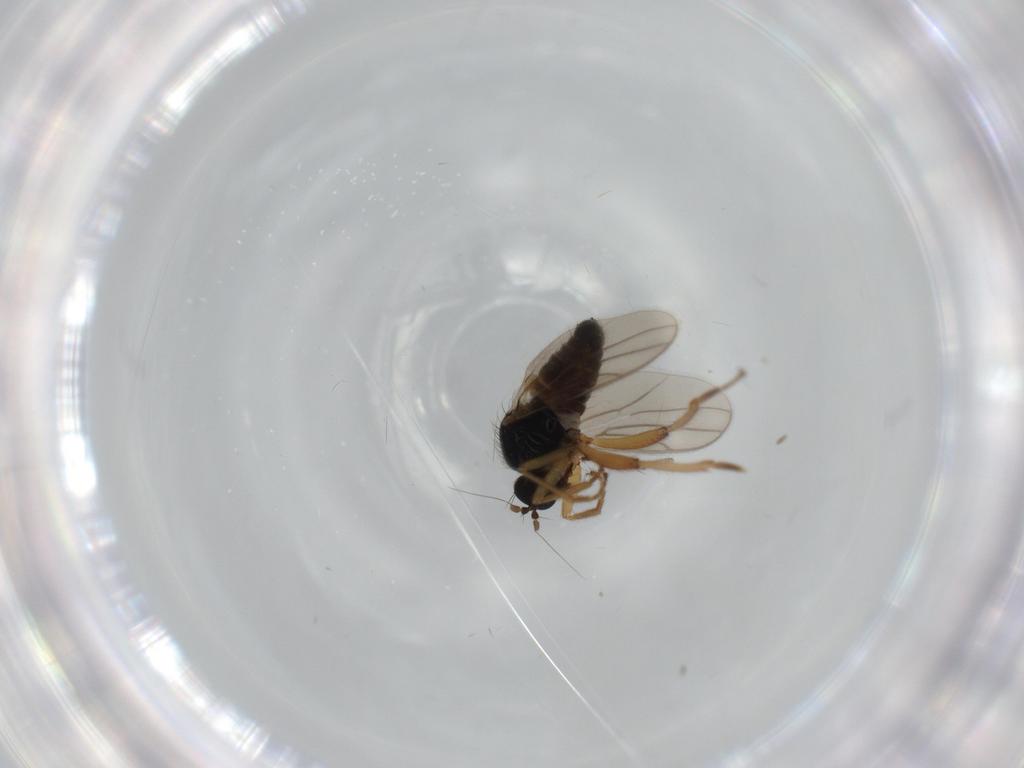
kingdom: Animalia
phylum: Arthropoda
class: Insecta
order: Diptera
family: Hybotidae
